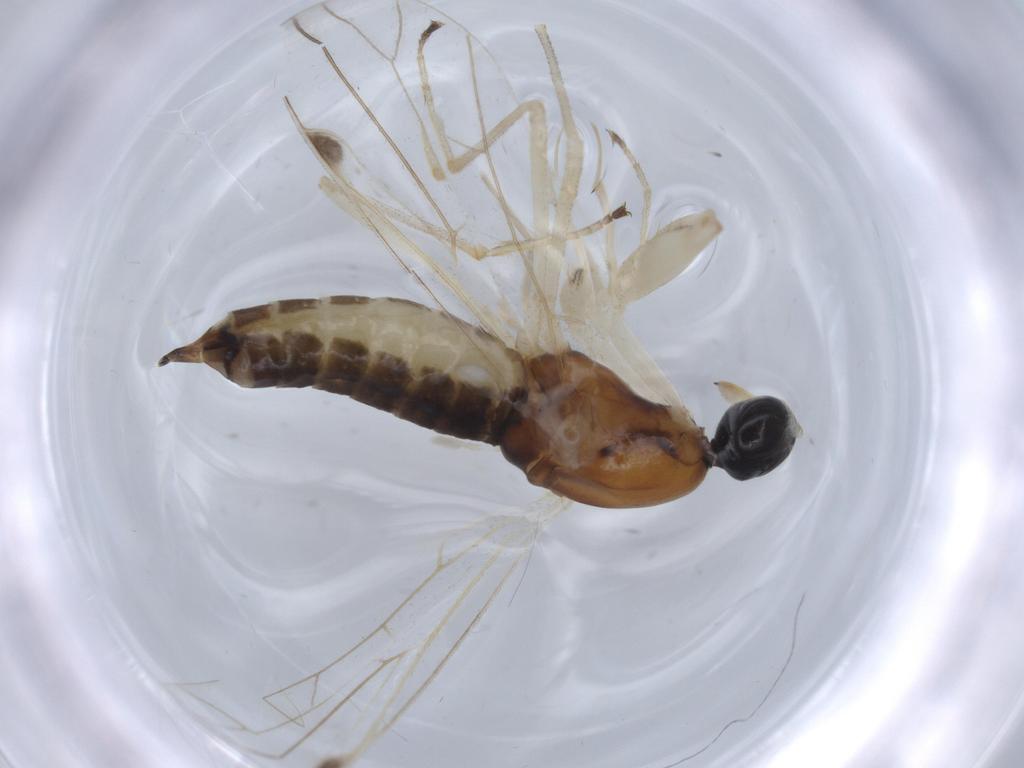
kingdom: Animalia
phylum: Arthropoda
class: Insecta
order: Diptera
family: Empididae
